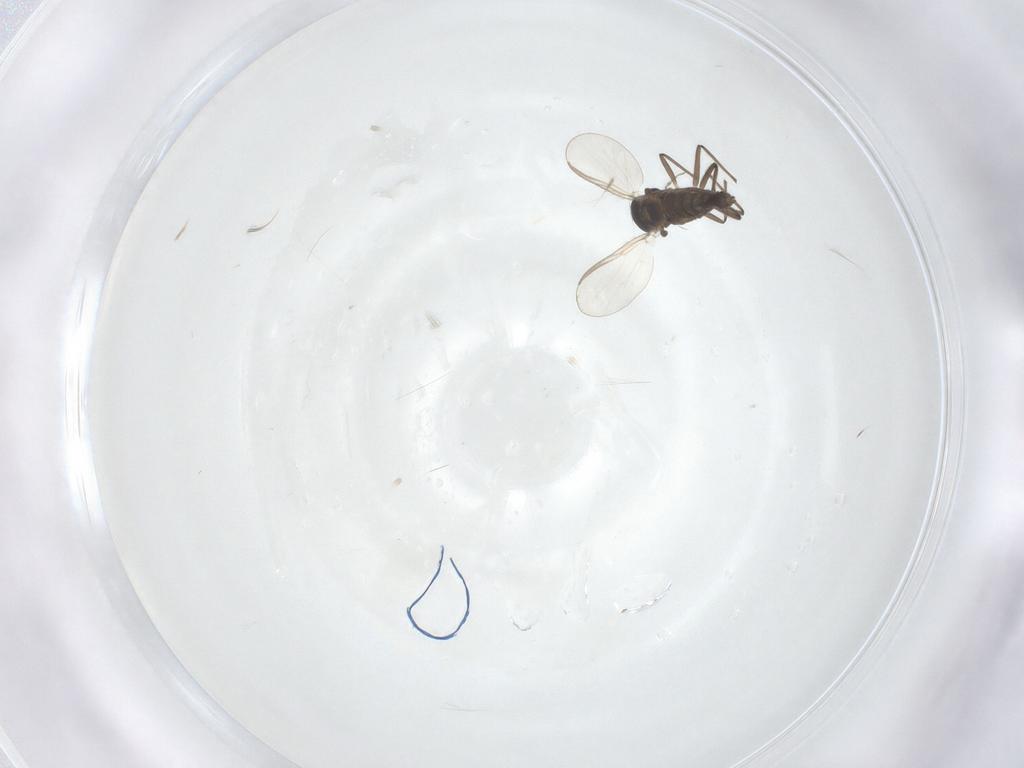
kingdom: Animalia
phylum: Arthropoda
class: Insecta
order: Diptera
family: Chironomidae
